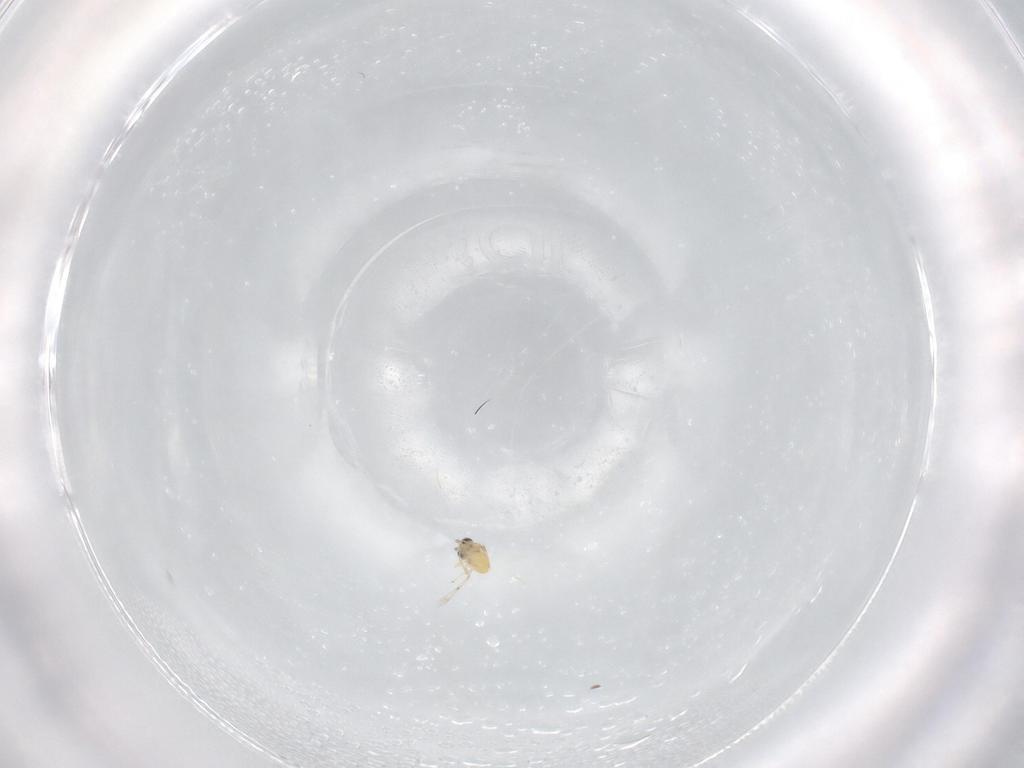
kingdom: Animalia
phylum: Arthropoda
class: Insecta
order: Hymenoptera
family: Trichogrammatidae
